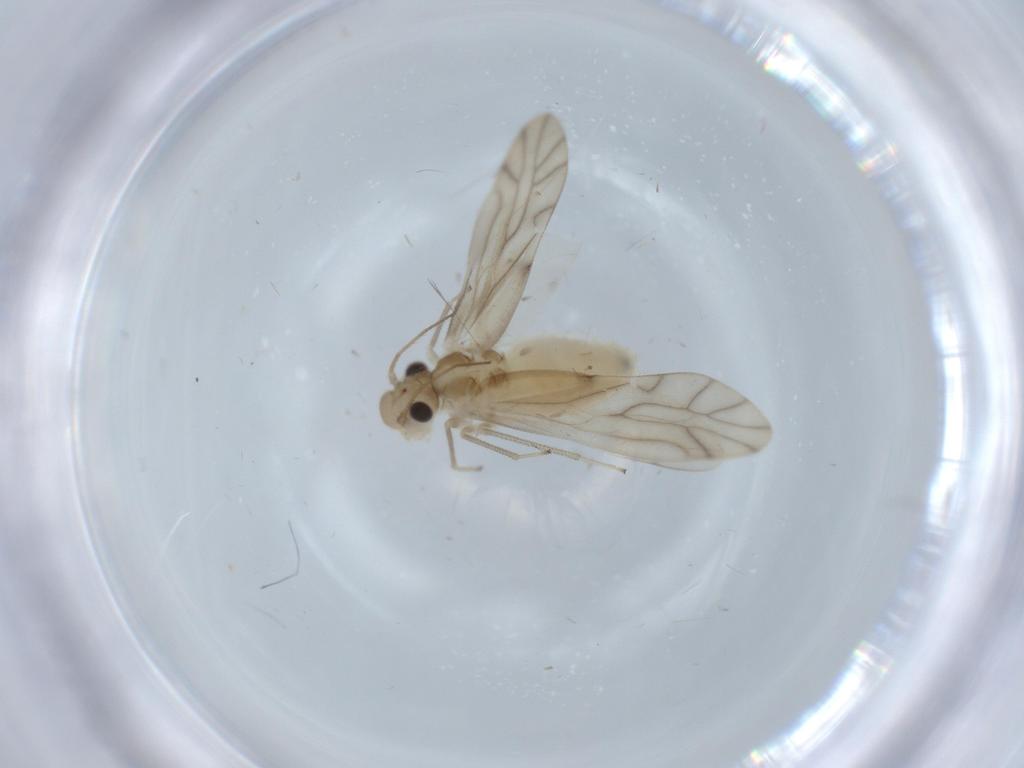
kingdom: Animalia
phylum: Arthropoda
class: Insecta
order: Psocodea
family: Caeciliusidae
